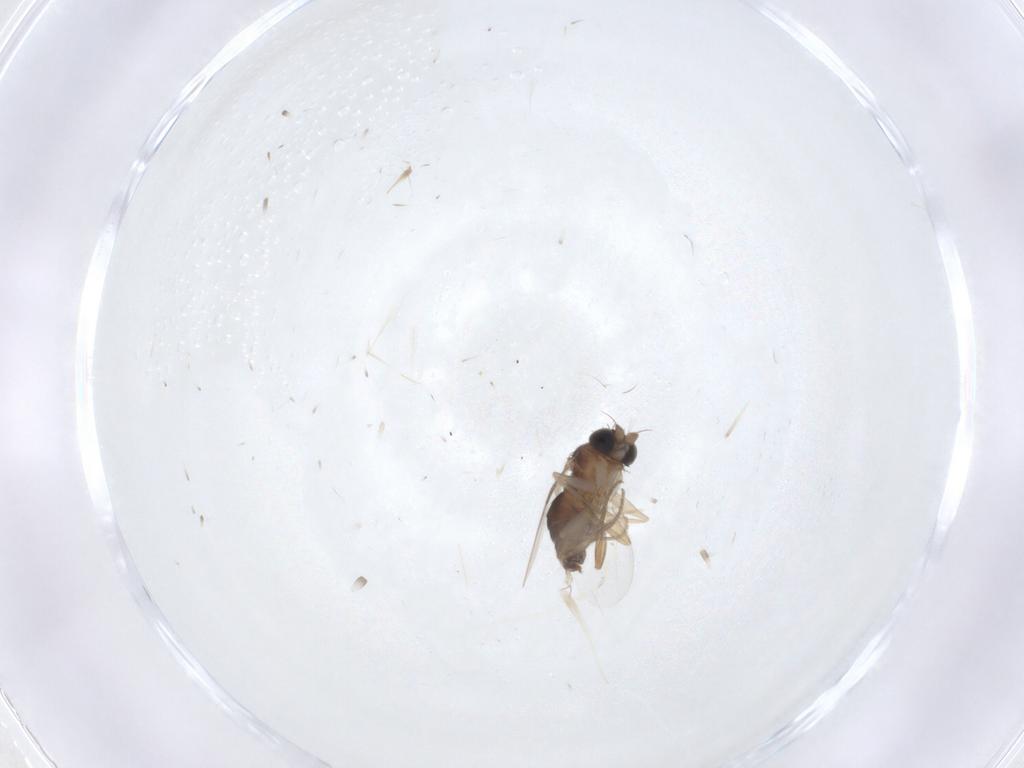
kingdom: Animalia
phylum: Arthropoda
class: Insecta
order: Diptera
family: Phoridae
